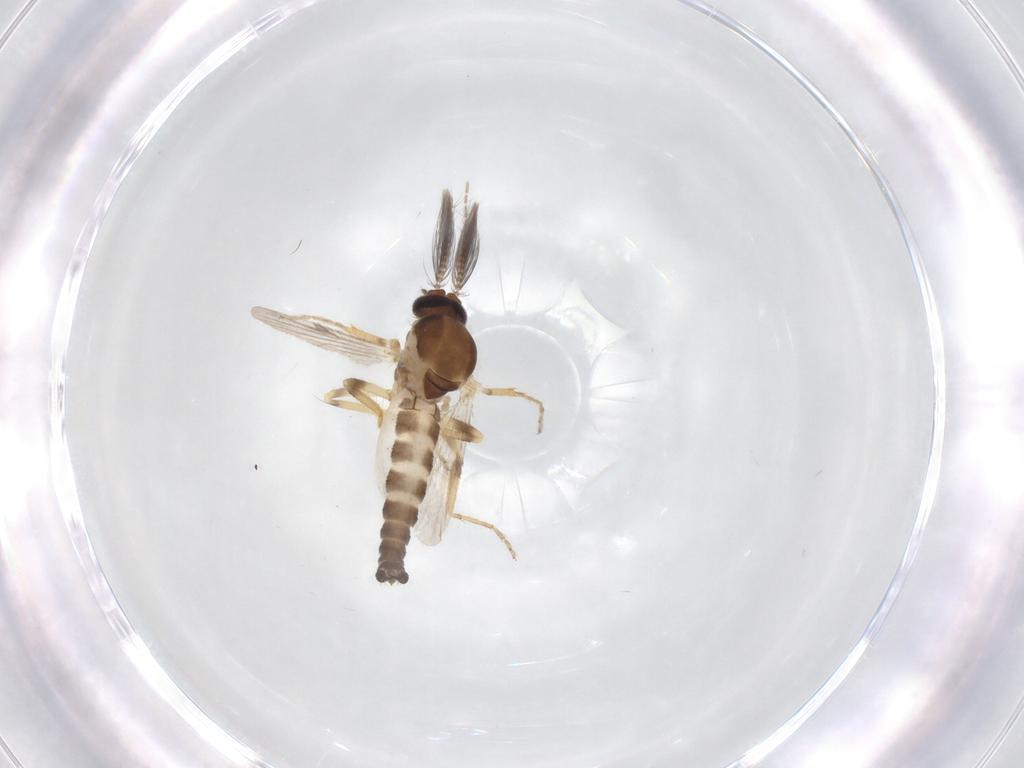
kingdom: Animalia
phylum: Arthropoda
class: Insecta
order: Diptera
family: Ceratopogonidae
